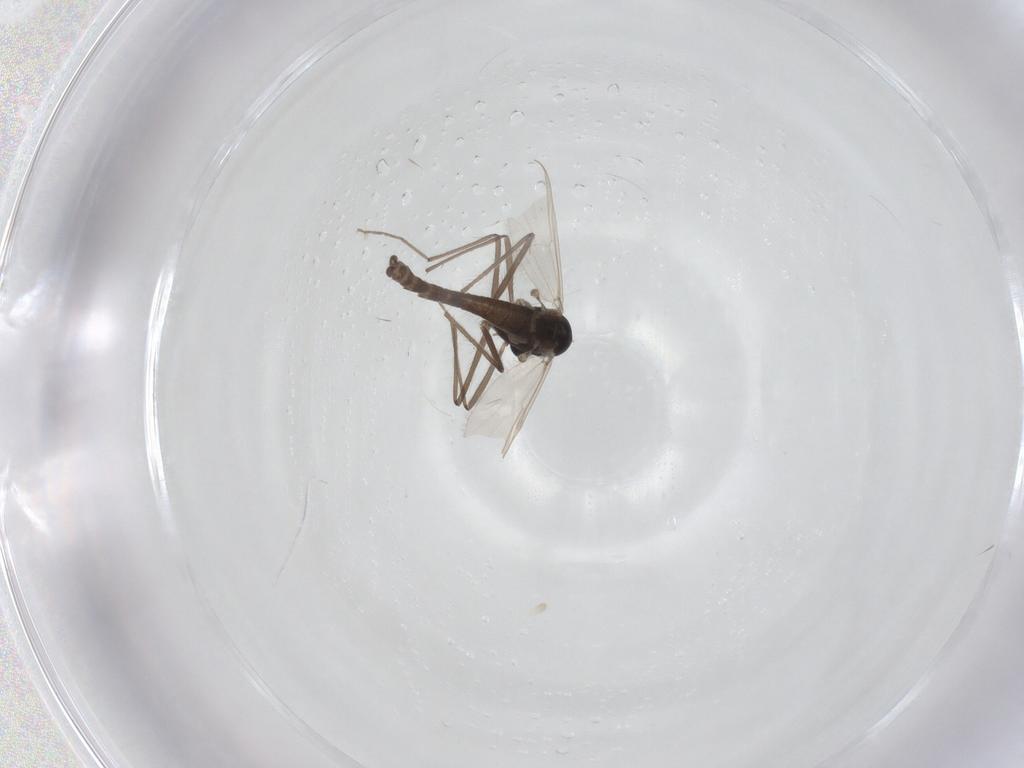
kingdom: Animalia
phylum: Arthropoda
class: Insecta
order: Diptera
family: Chironomidae
